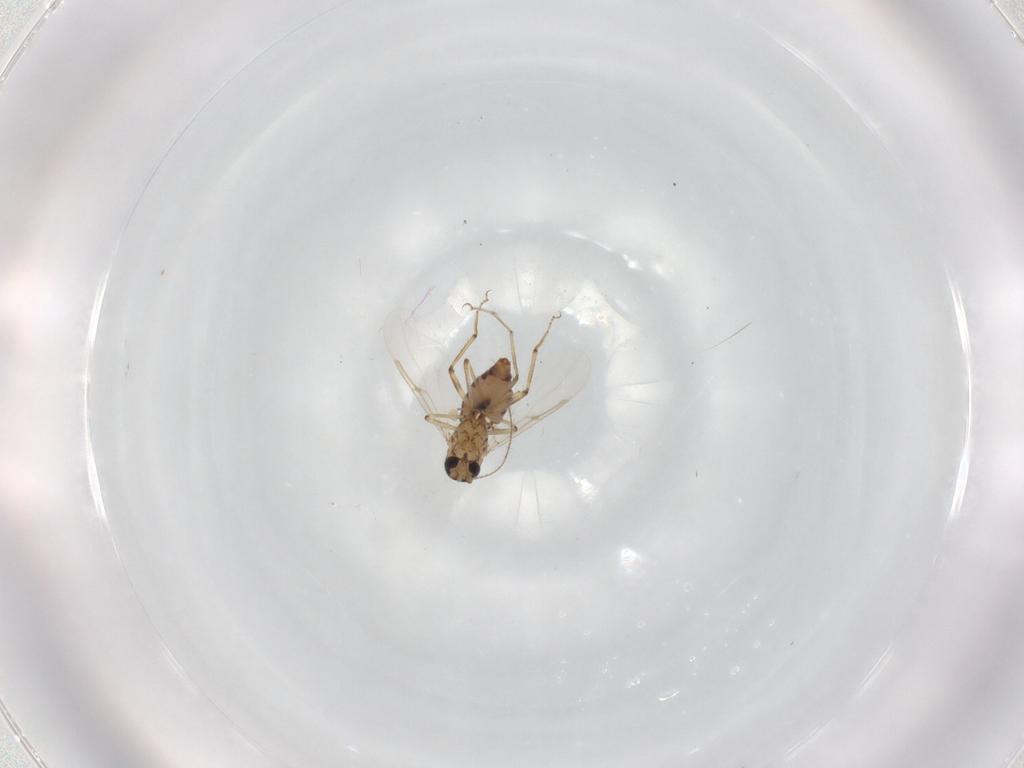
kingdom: Animalia
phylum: Arthropoda
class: Insecta
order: Diptera
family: Ceratopogonidae
